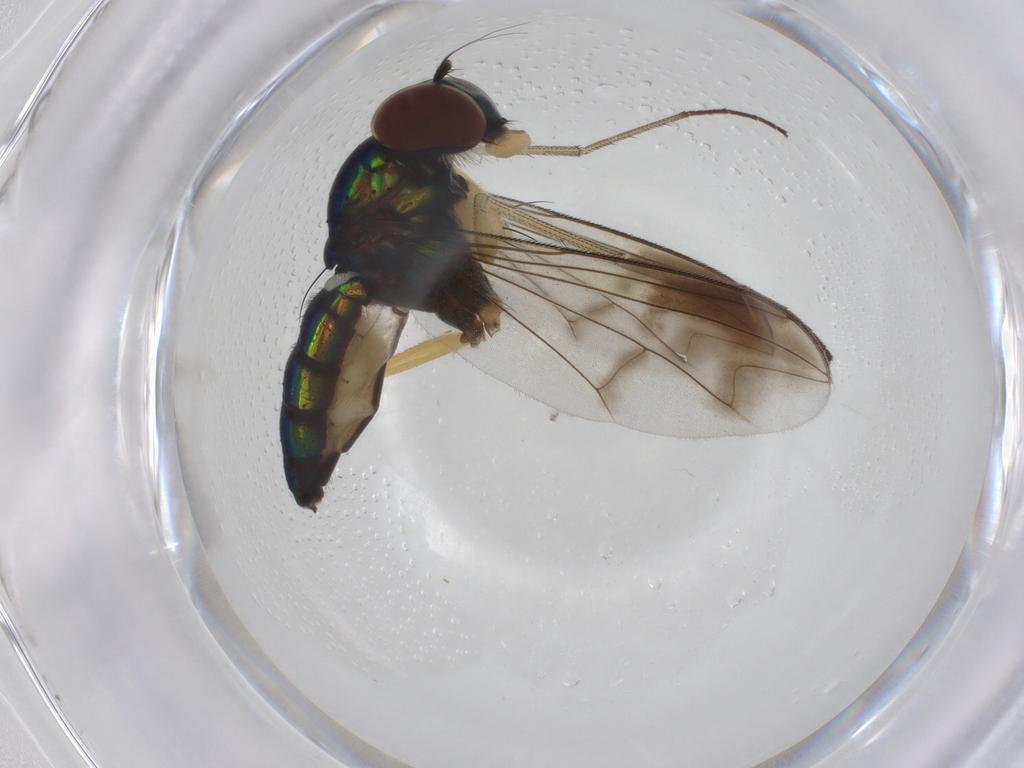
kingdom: Animalia
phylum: Arthropoda
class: Insecta
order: Diptera
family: Dolichopodidae
